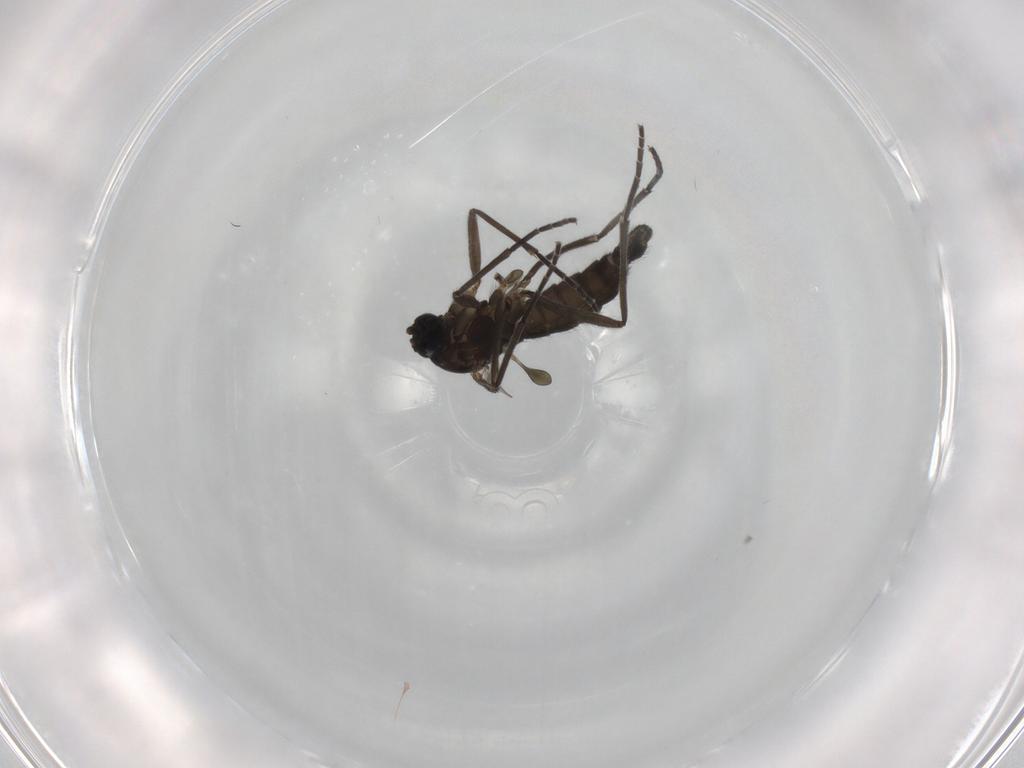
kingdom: Animalia
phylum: Arthropoda
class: Insecta
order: Diptera
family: Sciaridae
